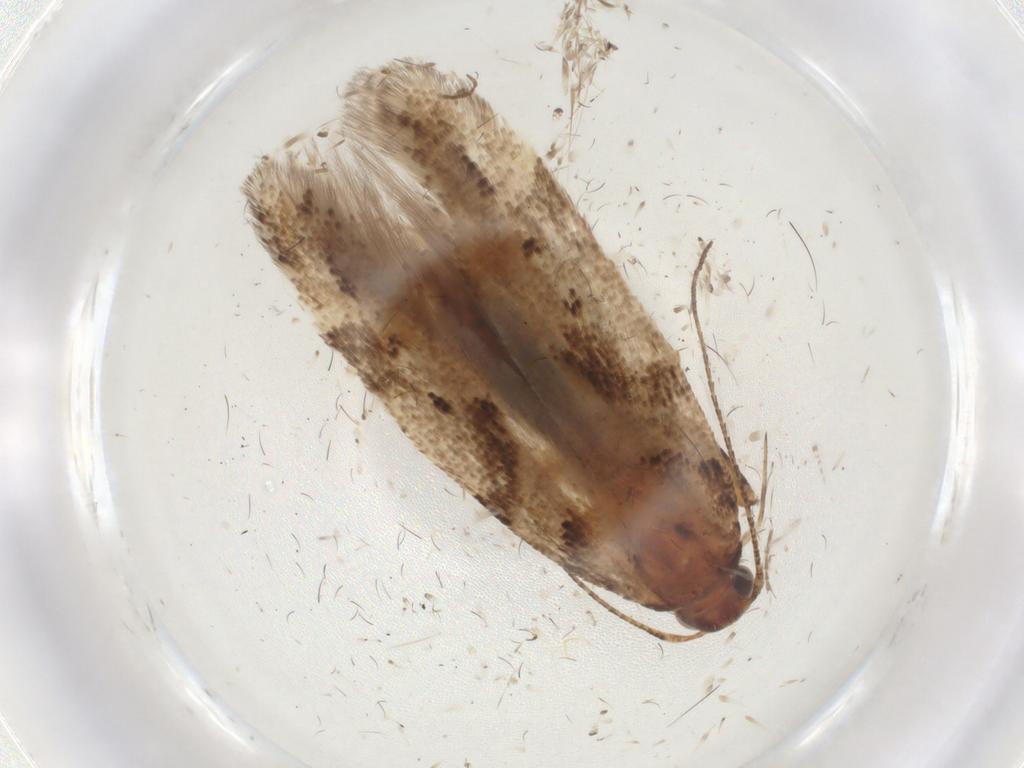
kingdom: Animalia
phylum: Arthropoda
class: Insecta
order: Lepidoptera
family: Gelechiidae
